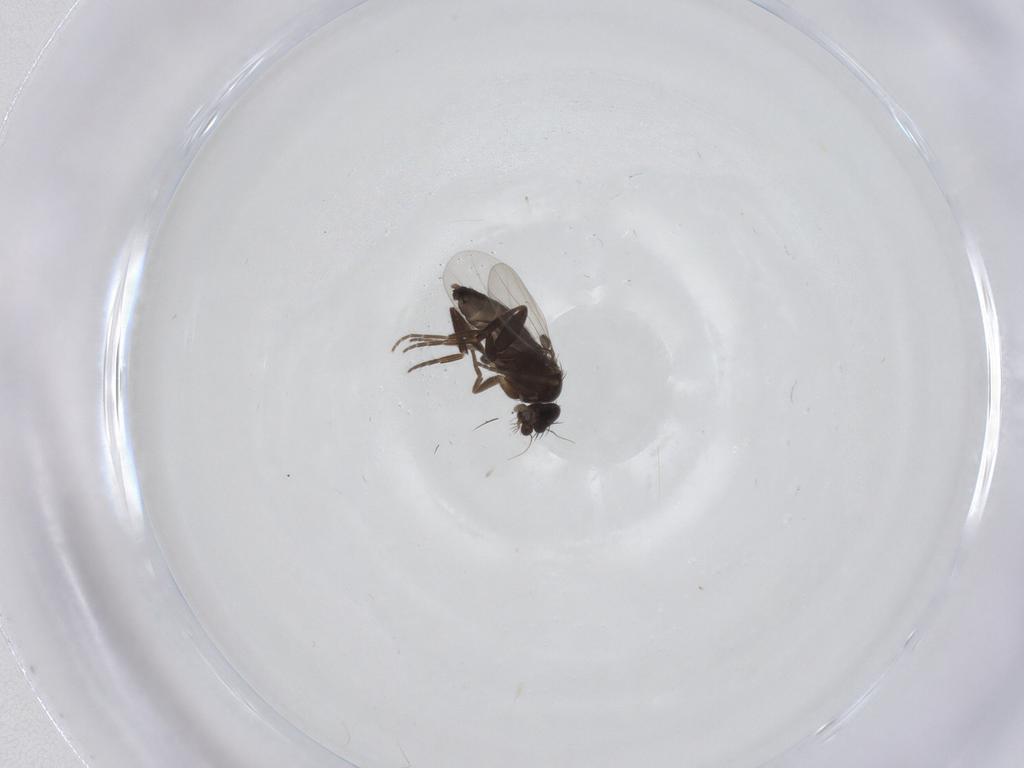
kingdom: Animalia
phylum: Arthropoda
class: Insecta
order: Diptera
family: Phoridae
